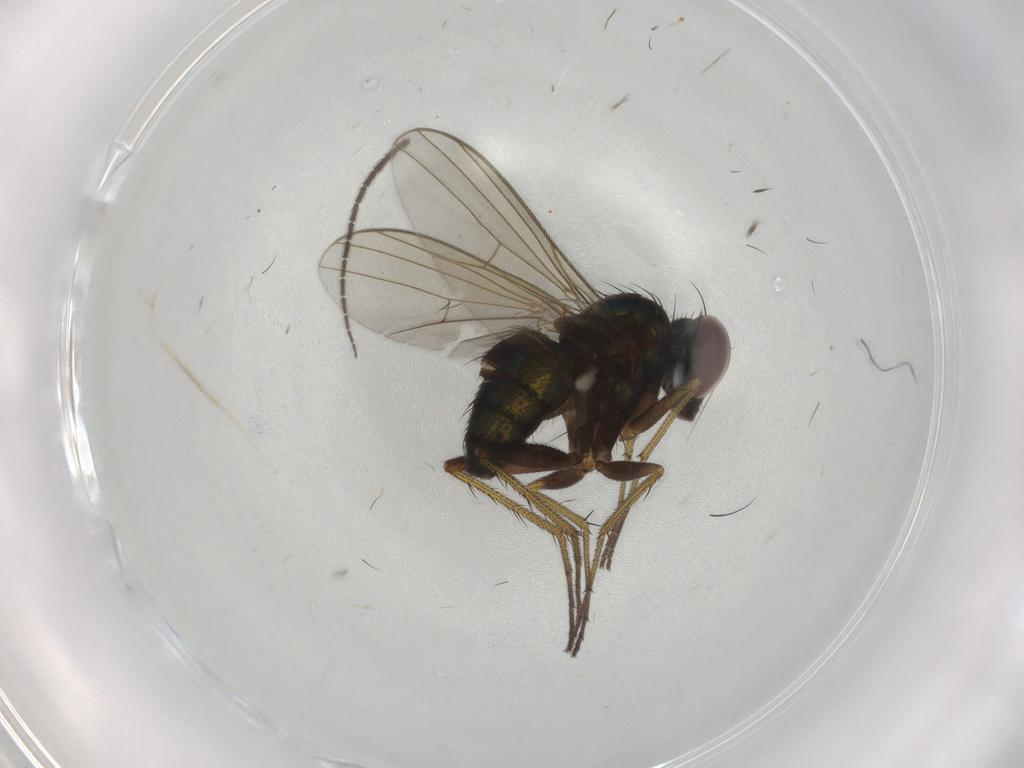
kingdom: Animalia
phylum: Arthropoda
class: Insecta
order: Diptera
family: Dolichopodidae
